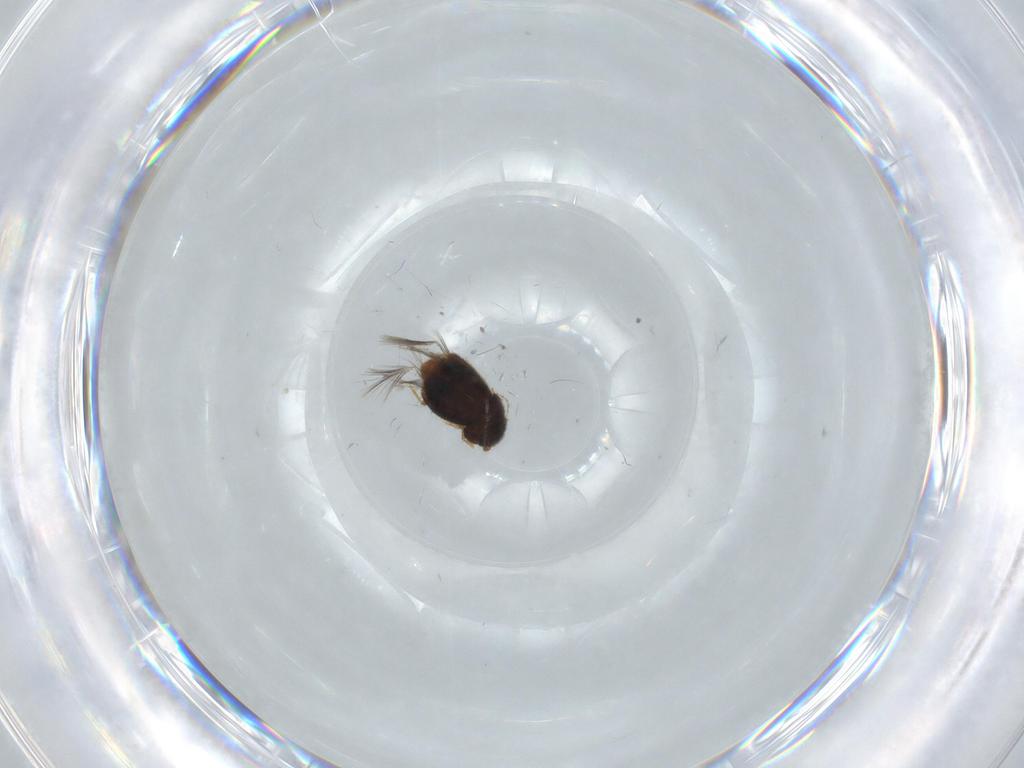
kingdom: Animalia
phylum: Arthropoda
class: Insecta
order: Coleoptera
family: Ptiliidae
